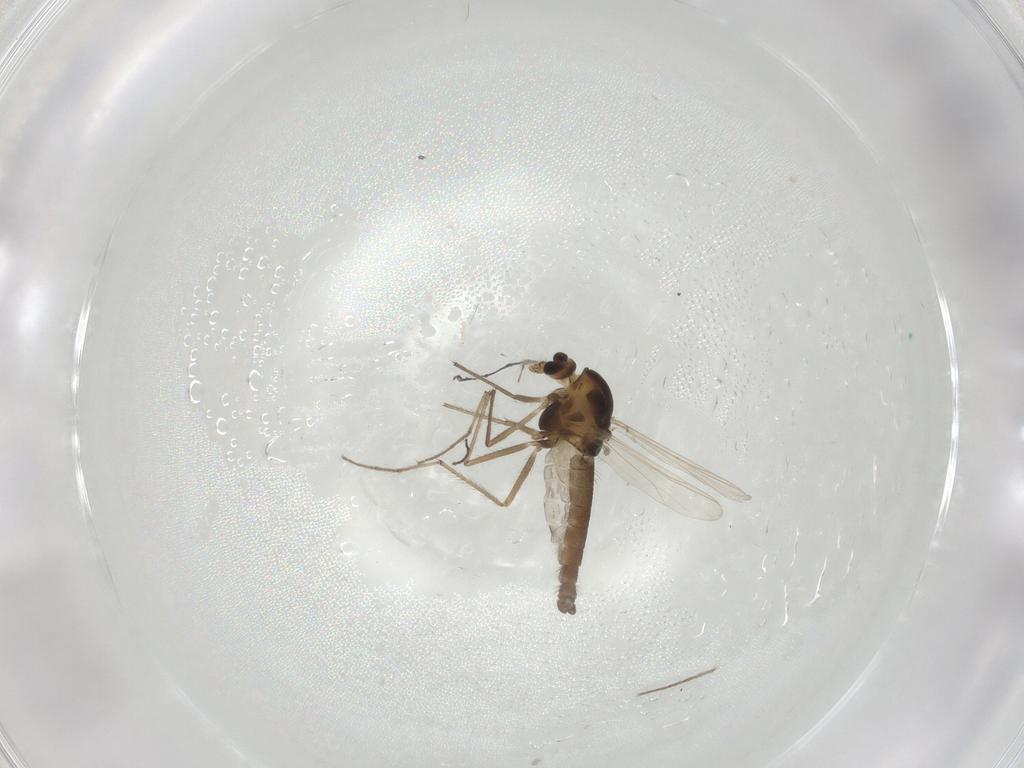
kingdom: Animalia
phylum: Arthropoda
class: Insecta
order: Diptera
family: Chironomidae
